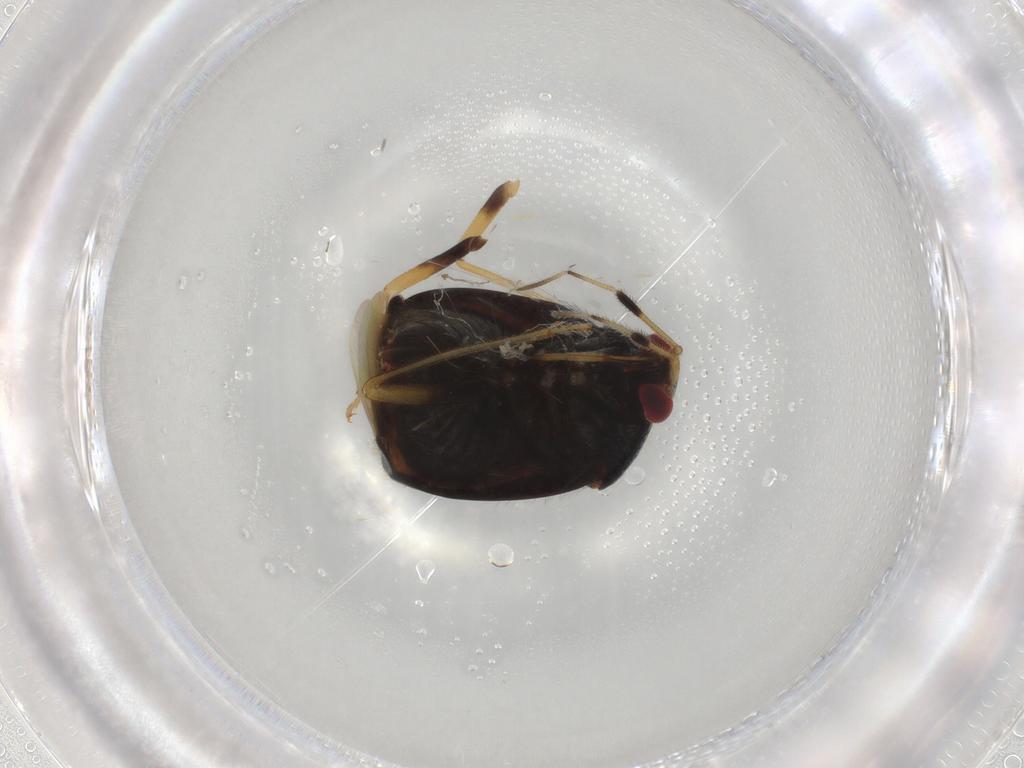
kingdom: Animalia
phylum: Arthropoda
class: Insecta
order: Hemiptera
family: Miridae
